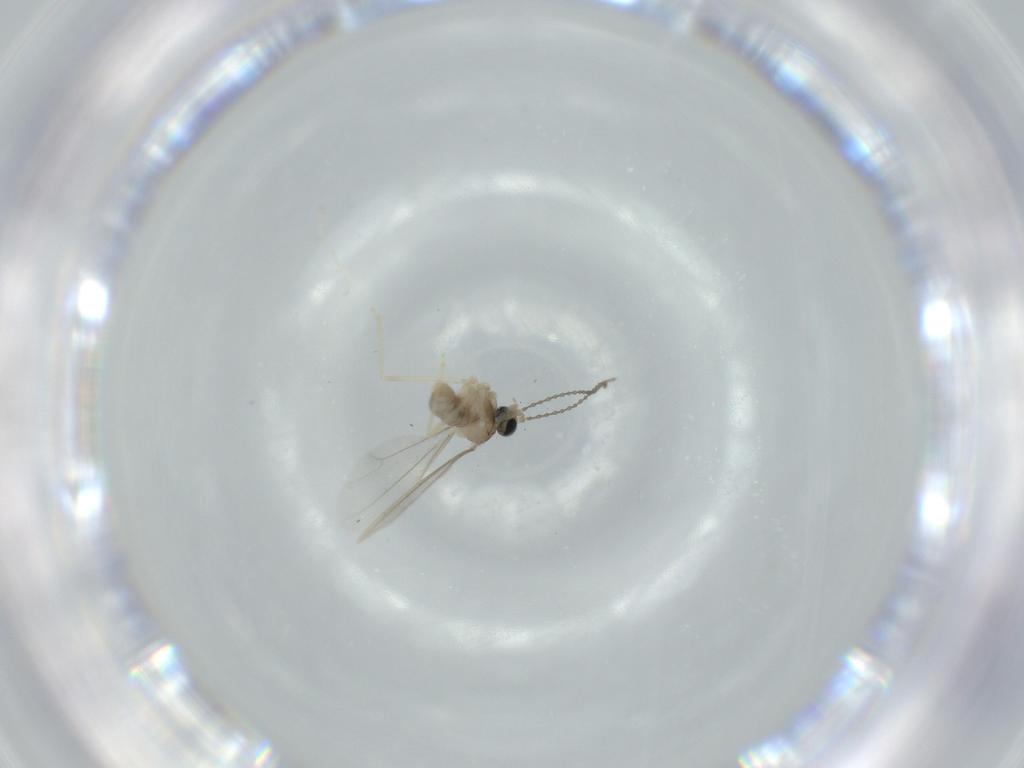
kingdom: Animalia
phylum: Arthropoda
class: Insecta
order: Diptera
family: Cecidomyiidae
